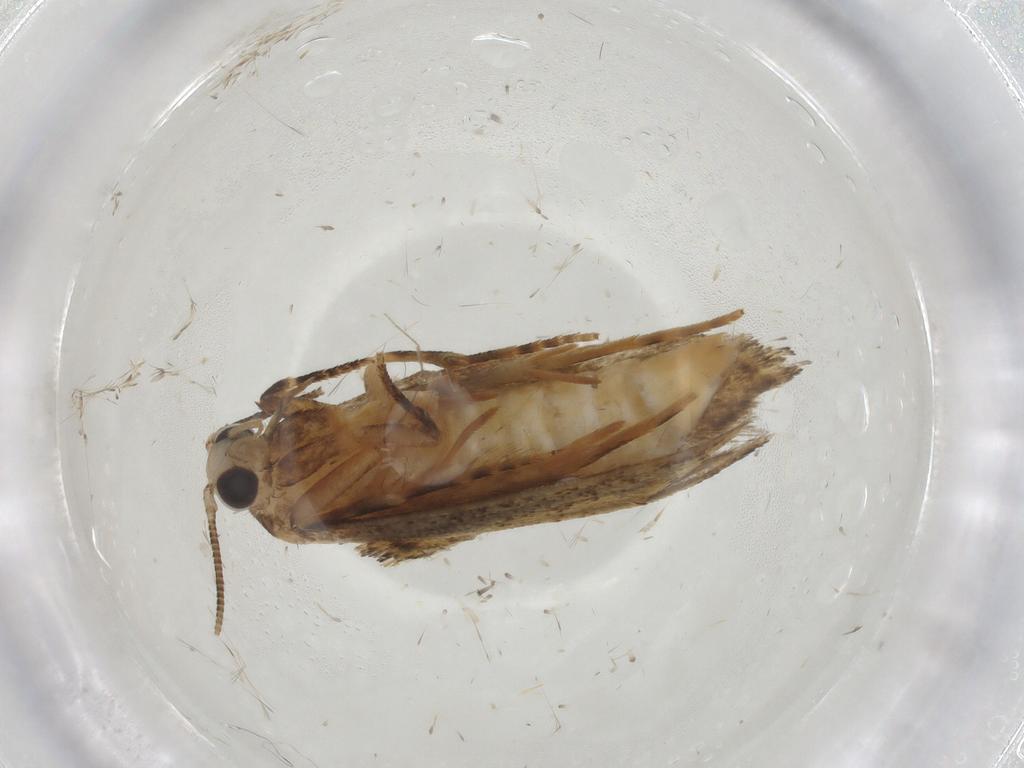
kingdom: Animalia
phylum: Arthropoda
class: Insecta
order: Lepidoptera
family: Tineidae
